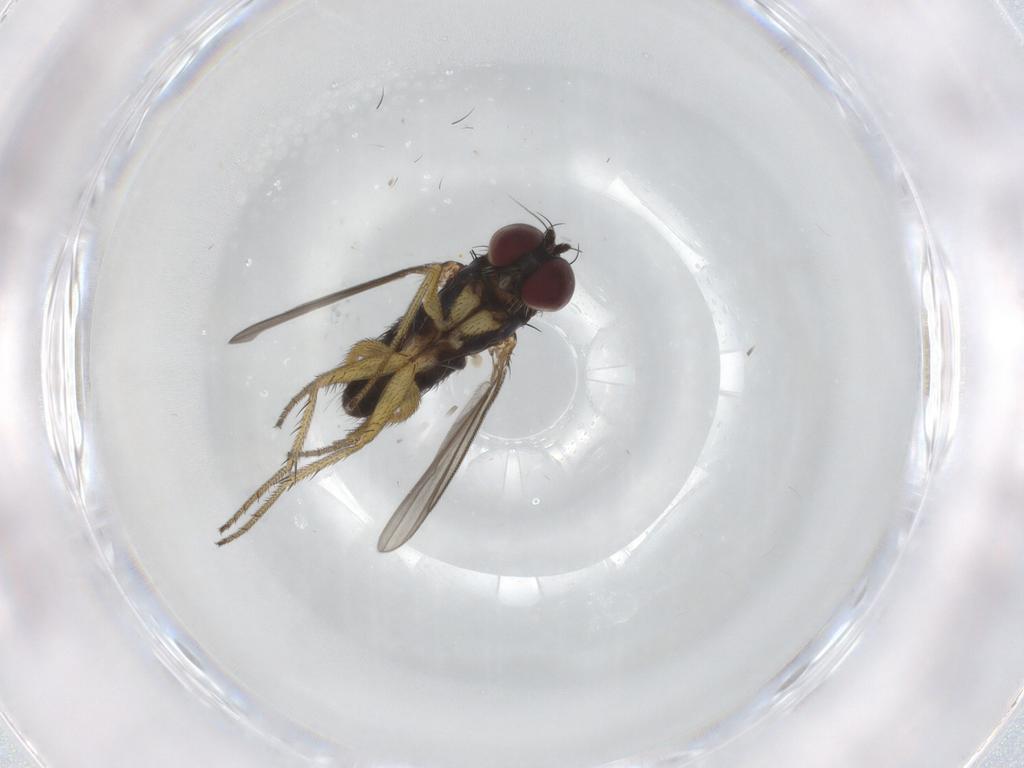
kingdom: Animalia
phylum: Arthropoda
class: Insecta
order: Diptera
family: Dolichopodidae
